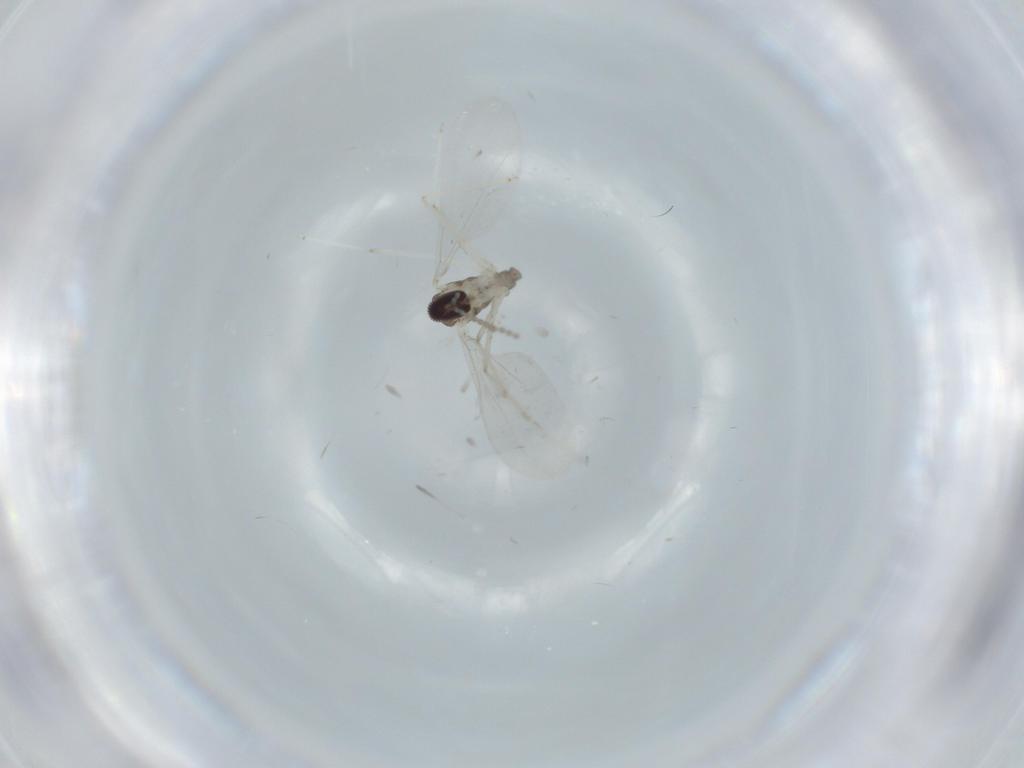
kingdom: Animalia
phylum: Arthropoda
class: Insecta
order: Diptera
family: Cecidomyiidae
